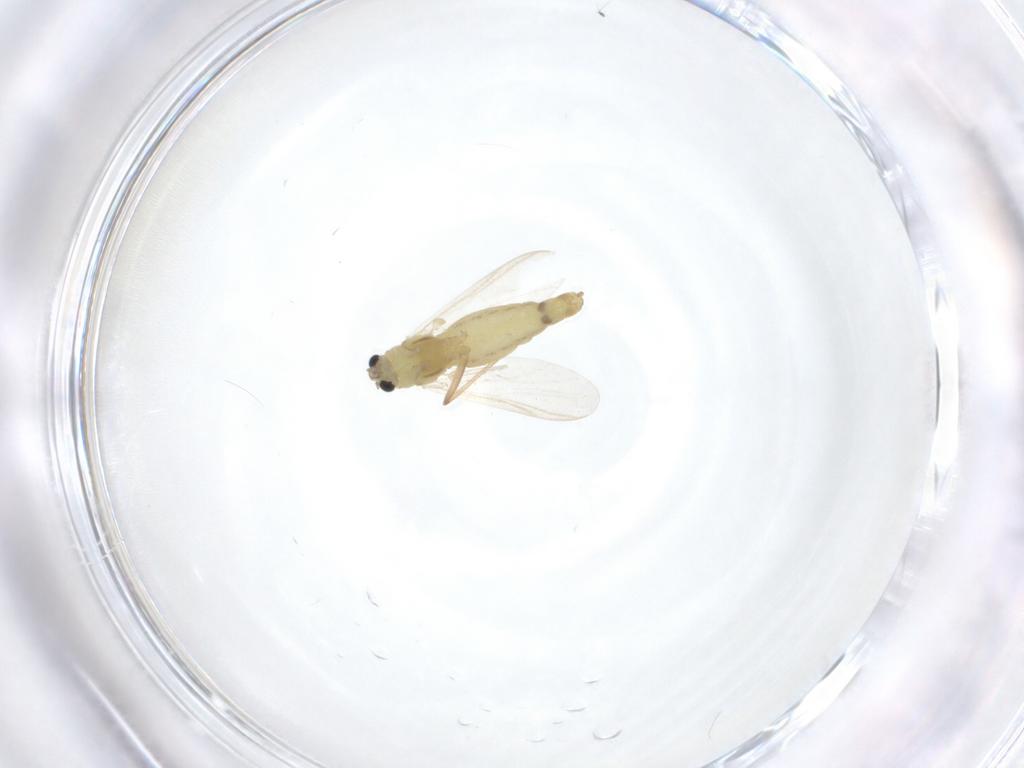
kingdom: Animalia
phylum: Arthropoda
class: Insecta
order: Diptera
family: Chironomidae
